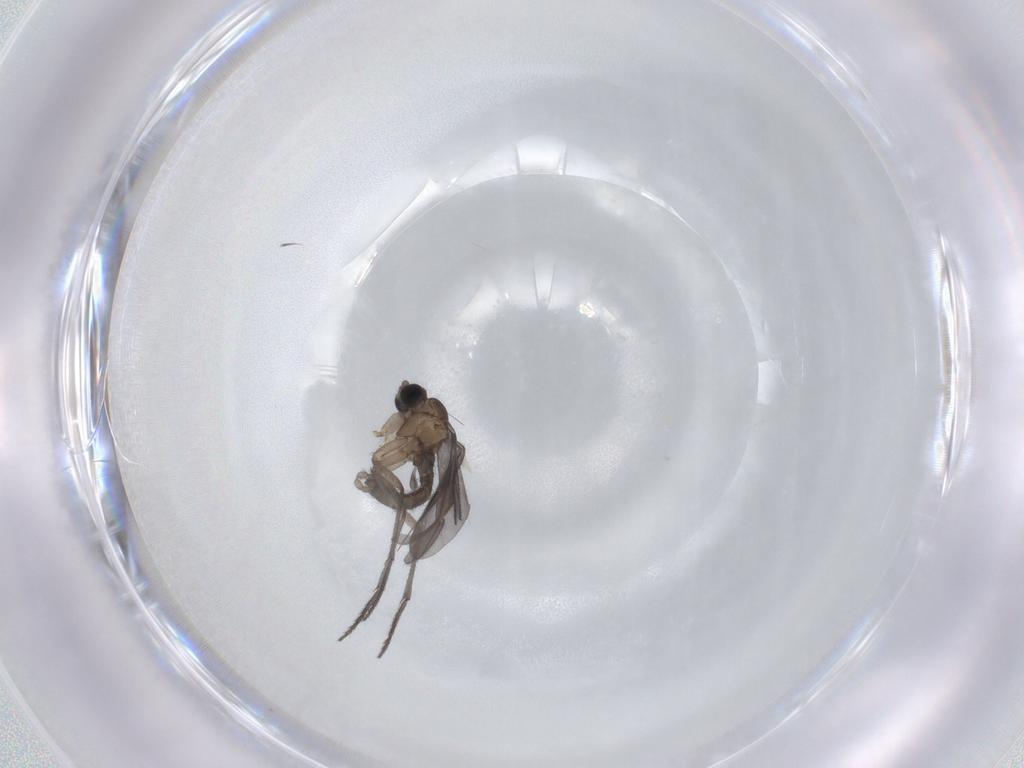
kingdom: Animalia
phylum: Arthropoda
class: Insecta
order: Diptera
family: Sciaridae
